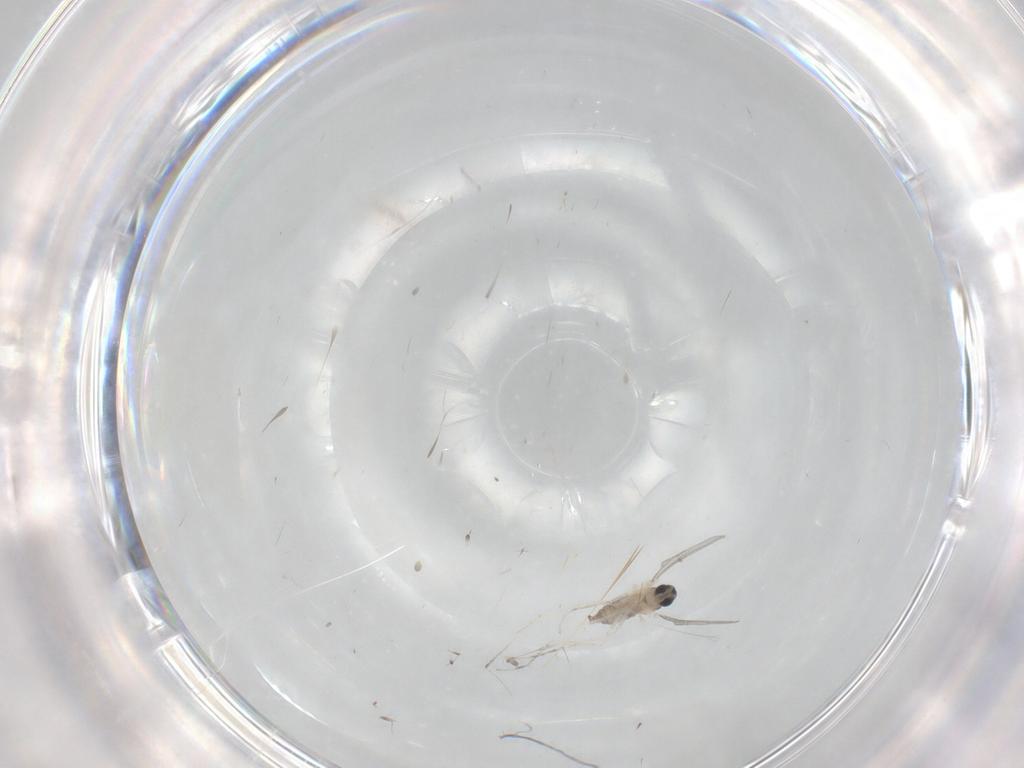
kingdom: Animalia
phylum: Arthropoda
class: Insecta
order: Diptera
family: Cecidomyiidae
